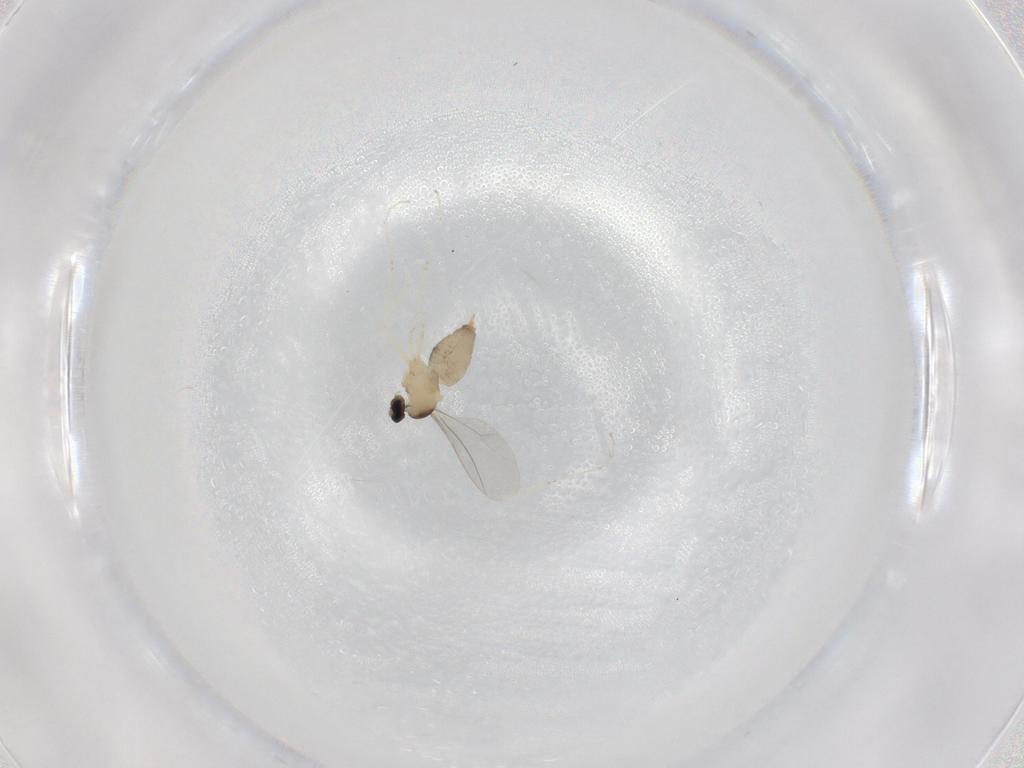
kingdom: Animalia
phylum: Arthropoda
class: Insecta
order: Diptera
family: Cecidomyiidae
